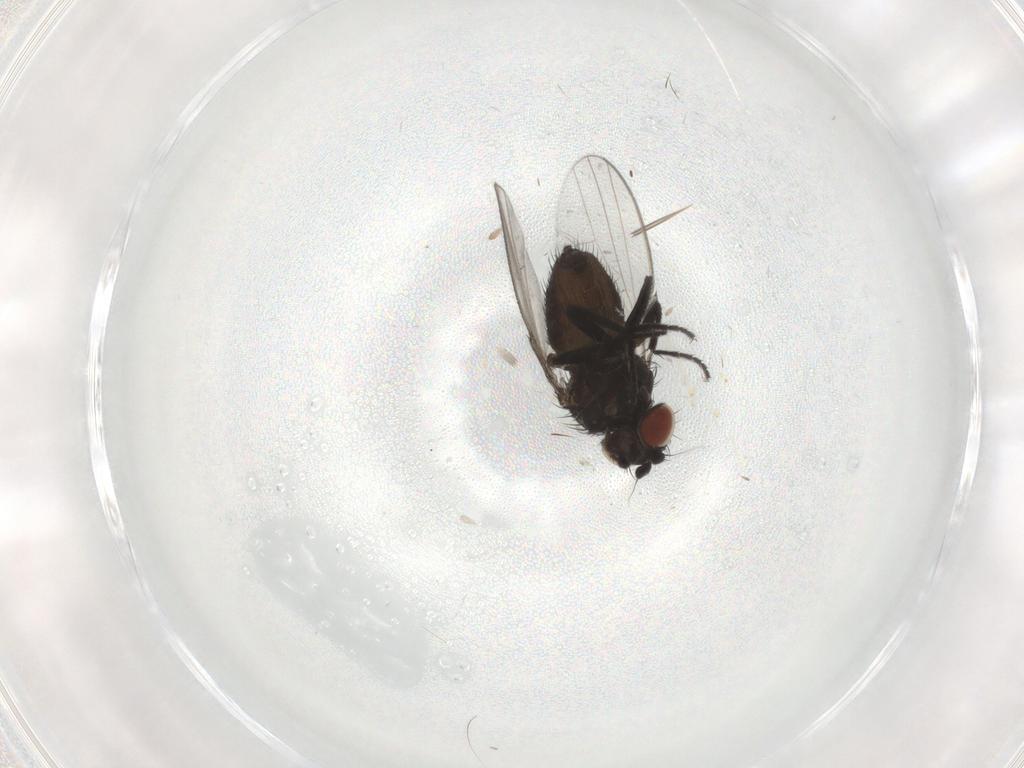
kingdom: Animalia
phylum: Arthropoda
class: Insecta
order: Diptera
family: Milichiidae
